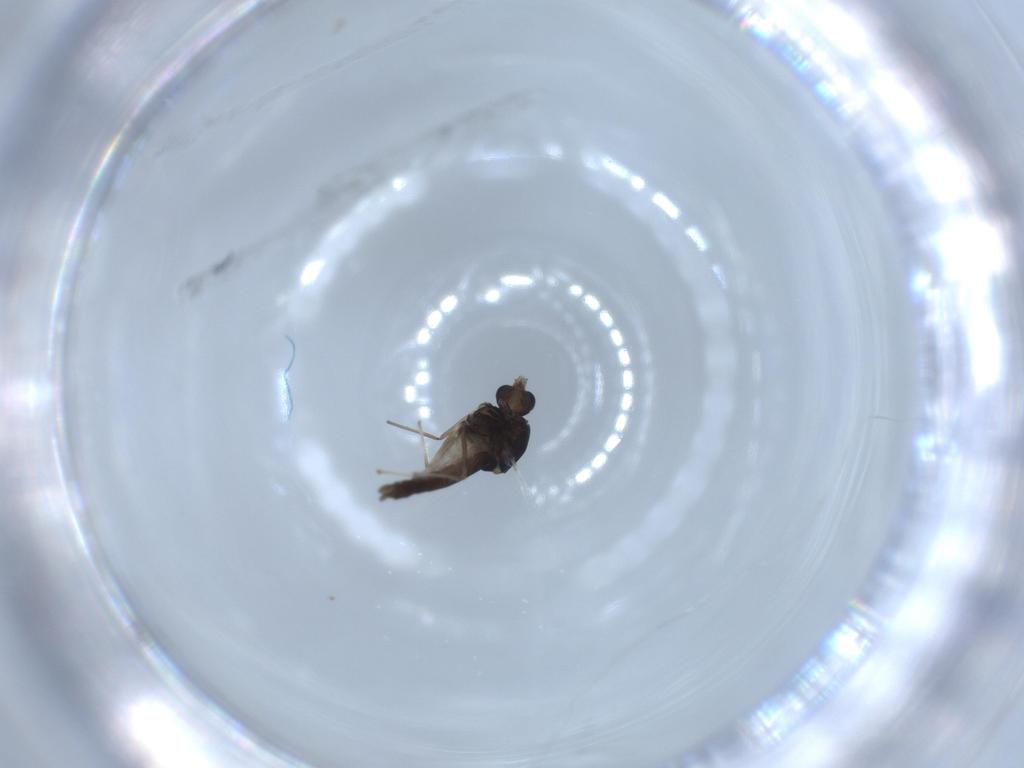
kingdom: Animalia
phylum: Arthropoda
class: Insecta
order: Diptera
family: Chironomidae
